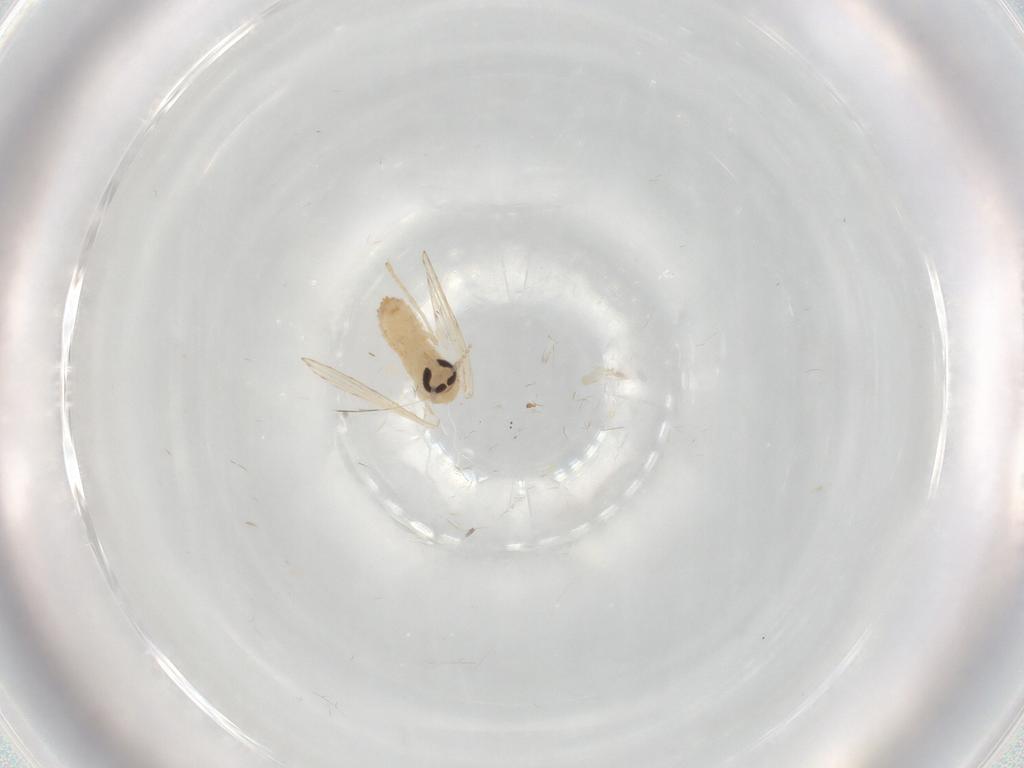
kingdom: Animalia
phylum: Arthropoda
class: Insecta
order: Diptera
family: Psychodidae
